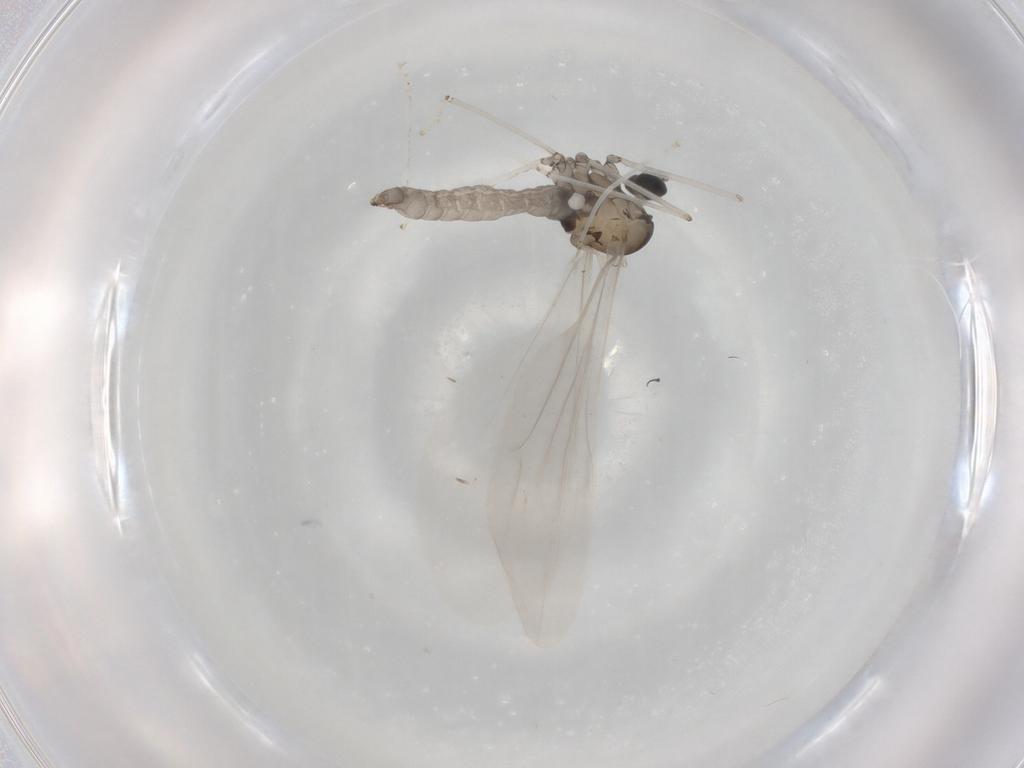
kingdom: Animalia
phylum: Arthropoda
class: Insecta
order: Diptera
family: Cecidomyiidae
